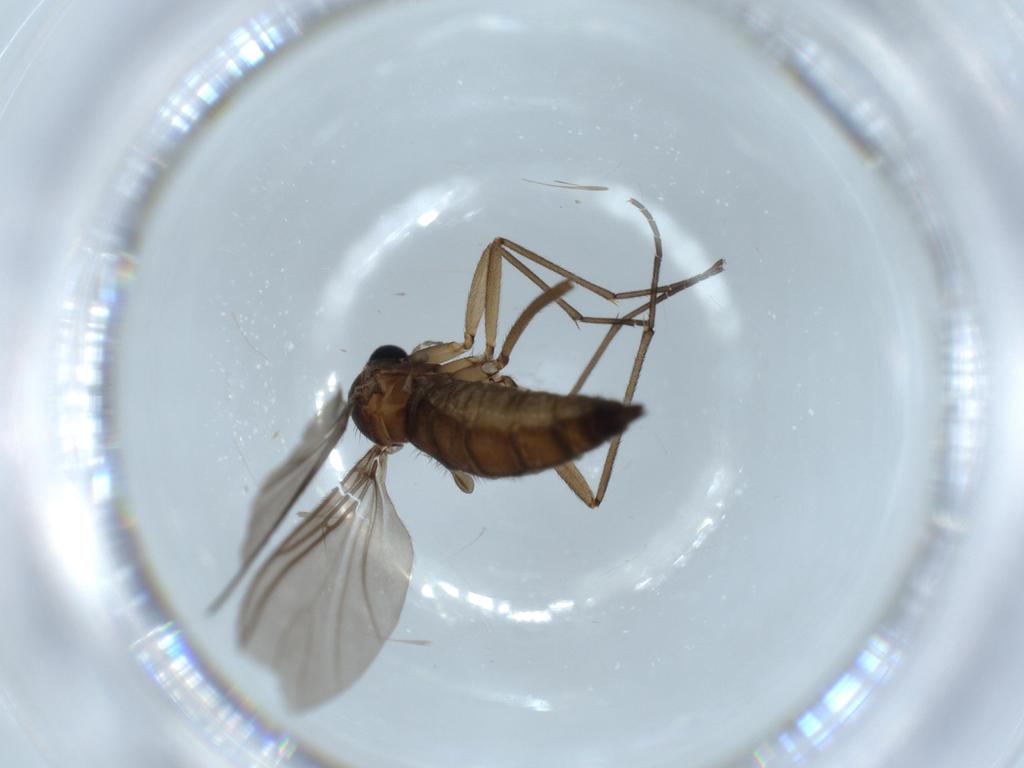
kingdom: Animalia
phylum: Arthropoda
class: Insecta
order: Diptera
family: Sciaridae
